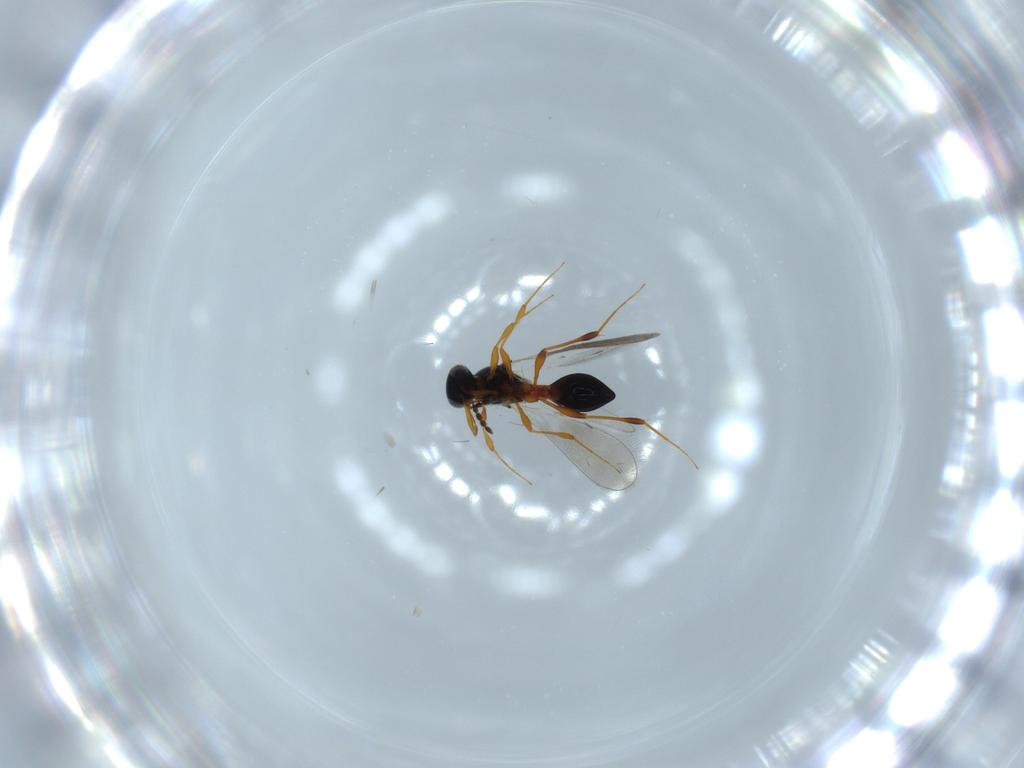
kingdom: Animalia
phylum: Arthropoda
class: Insecta
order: Hymenoptera
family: Platygastridae
